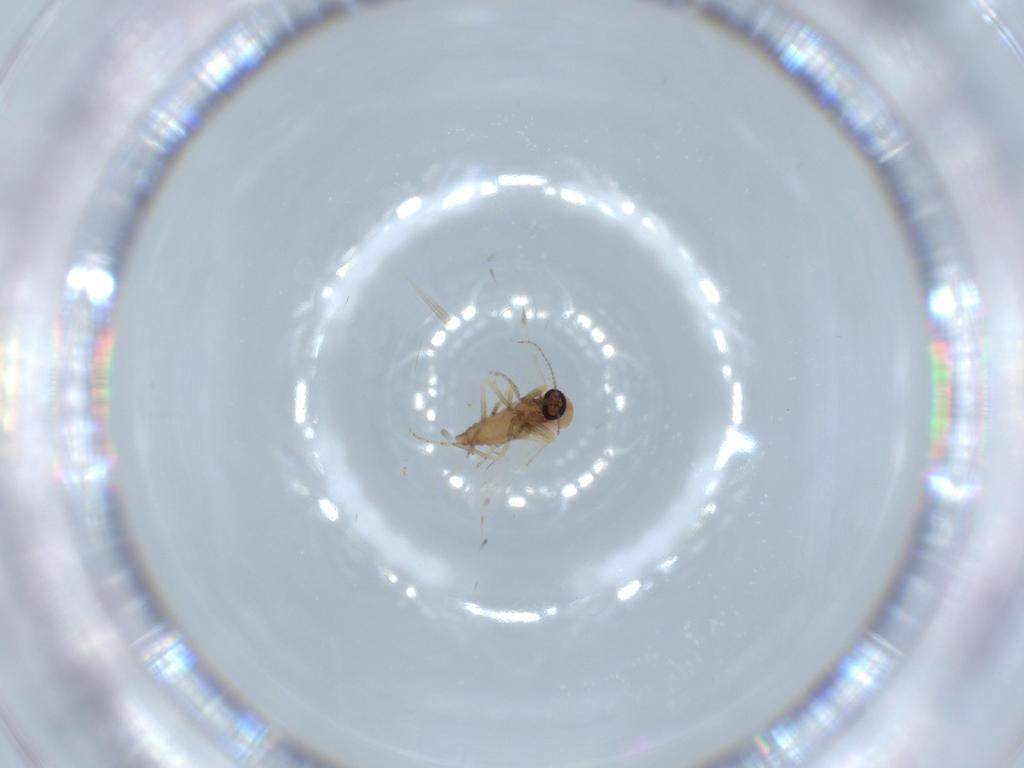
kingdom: Animalia
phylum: Arthropoda
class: Insecta
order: Diptera
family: Ceratopogonidae
